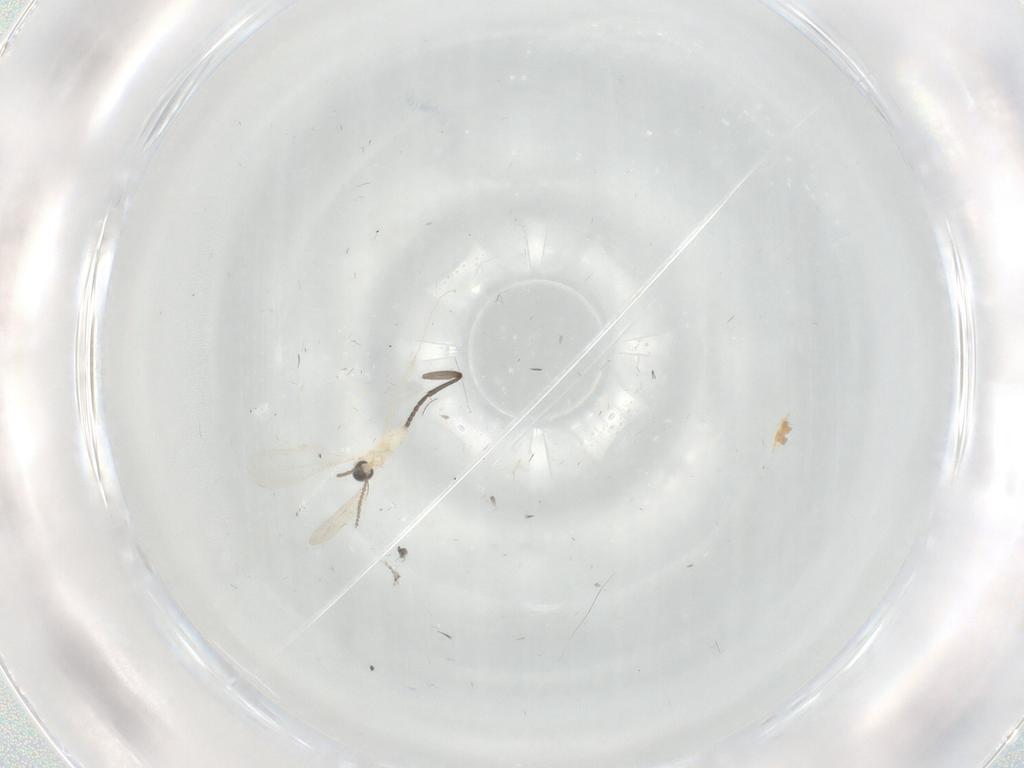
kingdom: Animalia
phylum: Arthropoda
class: Insecta
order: Diptera
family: Cecidomyiidae
